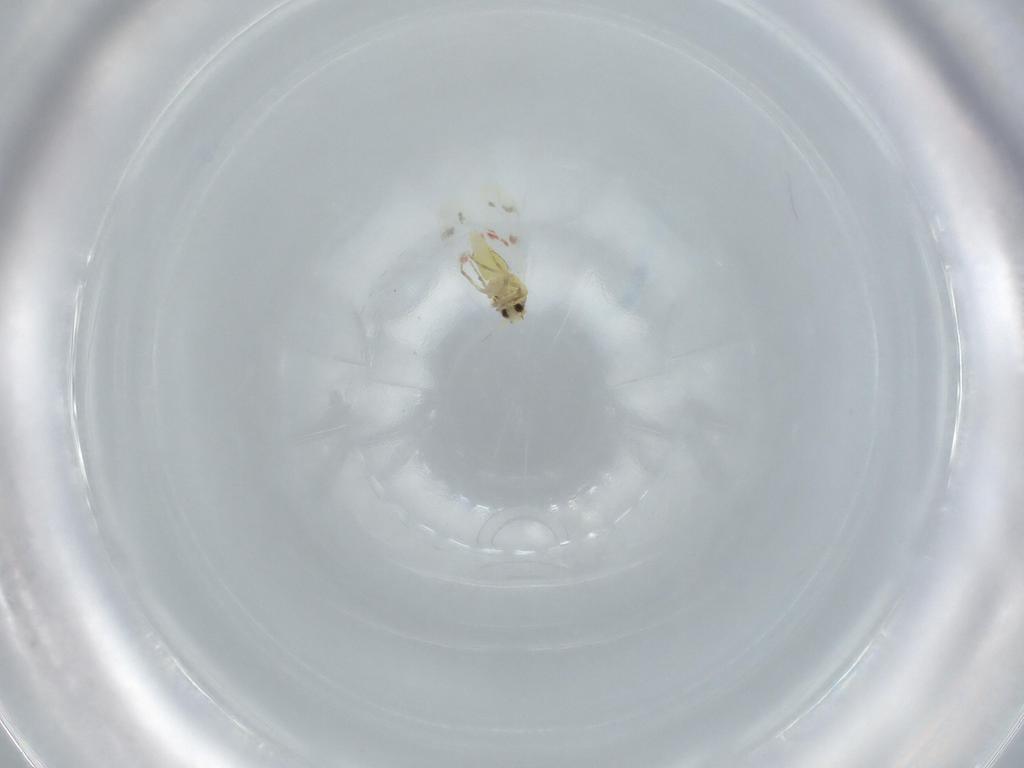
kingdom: Animalia
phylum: Arthropoda
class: Insecta
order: Hemiptera
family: Aleyrodidae
